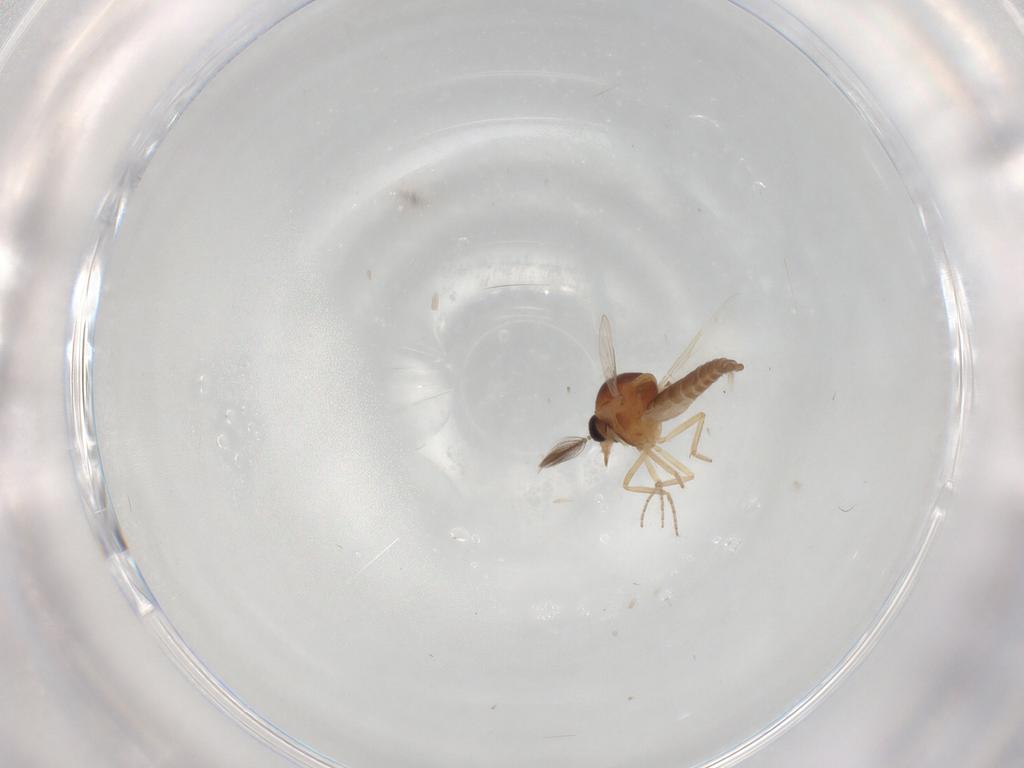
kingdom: Animalia
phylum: Arthropoda
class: Insecta
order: Diptera
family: Ceratopogonidae
